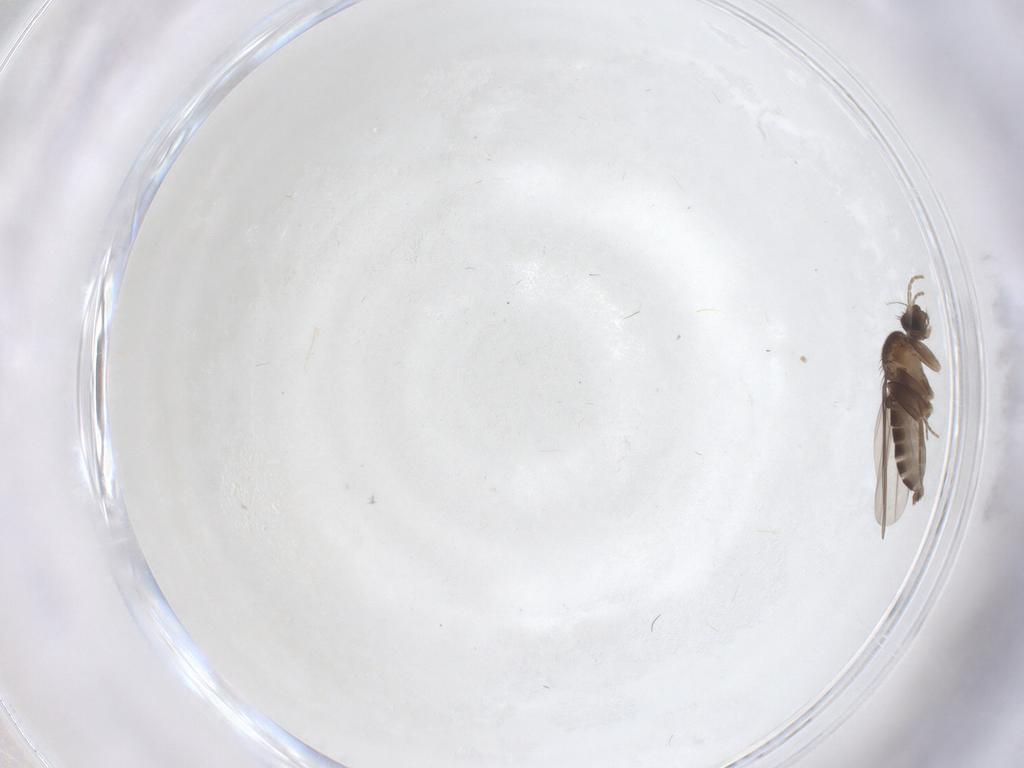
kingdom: Animalia
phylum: Arthropoda
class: Insecta
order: Diptera
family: Phoridae
